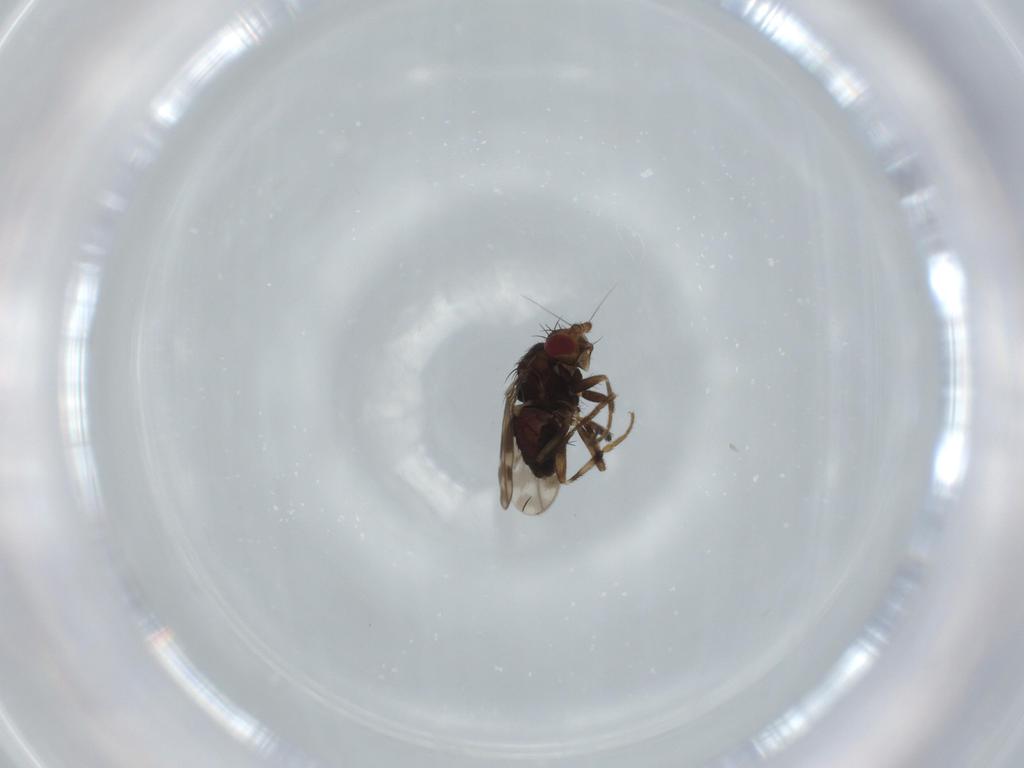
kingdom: Animalia
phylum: Arthropoda
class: Insecta
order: Diptera
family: Sphaeroceridae
